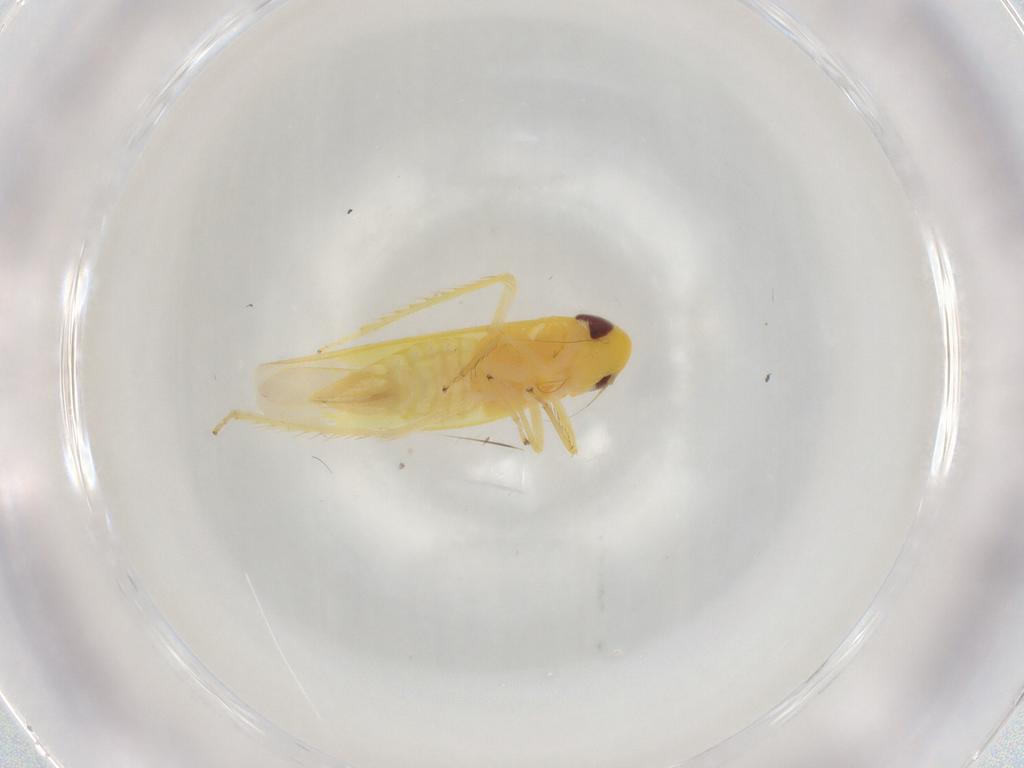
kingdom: Animalia
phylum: Arthropoda
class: Insecta
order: Hemiptera
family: Cicadellidae
